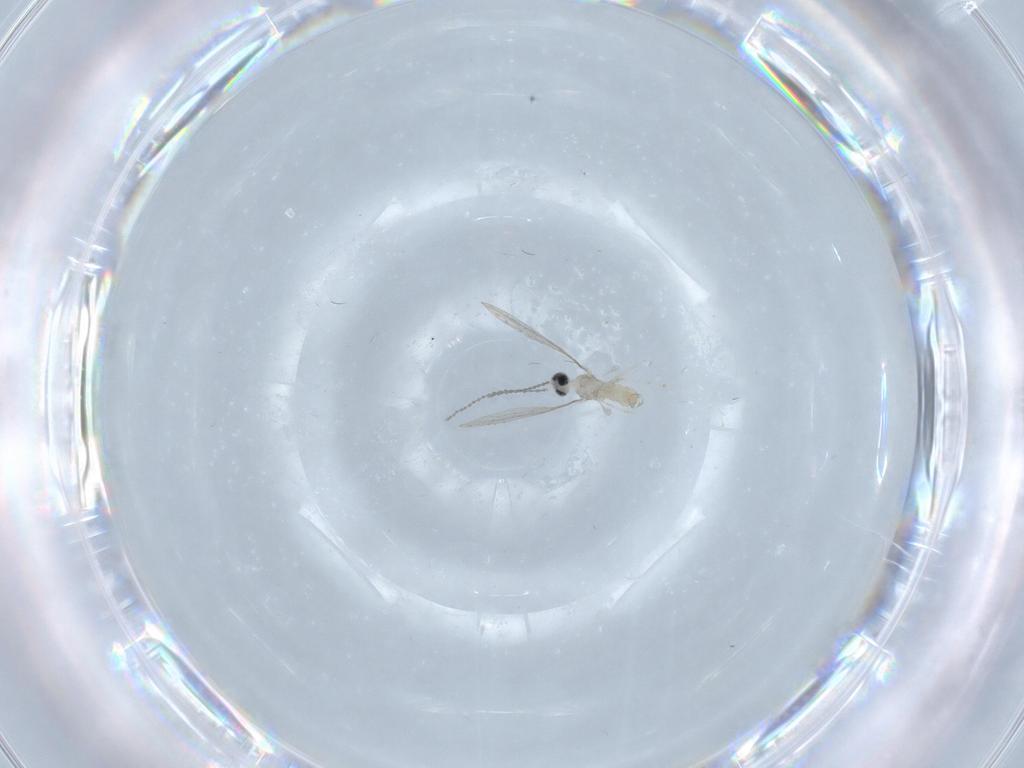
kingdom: Animalia
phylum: Arthropoda
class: Insecta
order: Diptera
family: Cecidomyiidae
